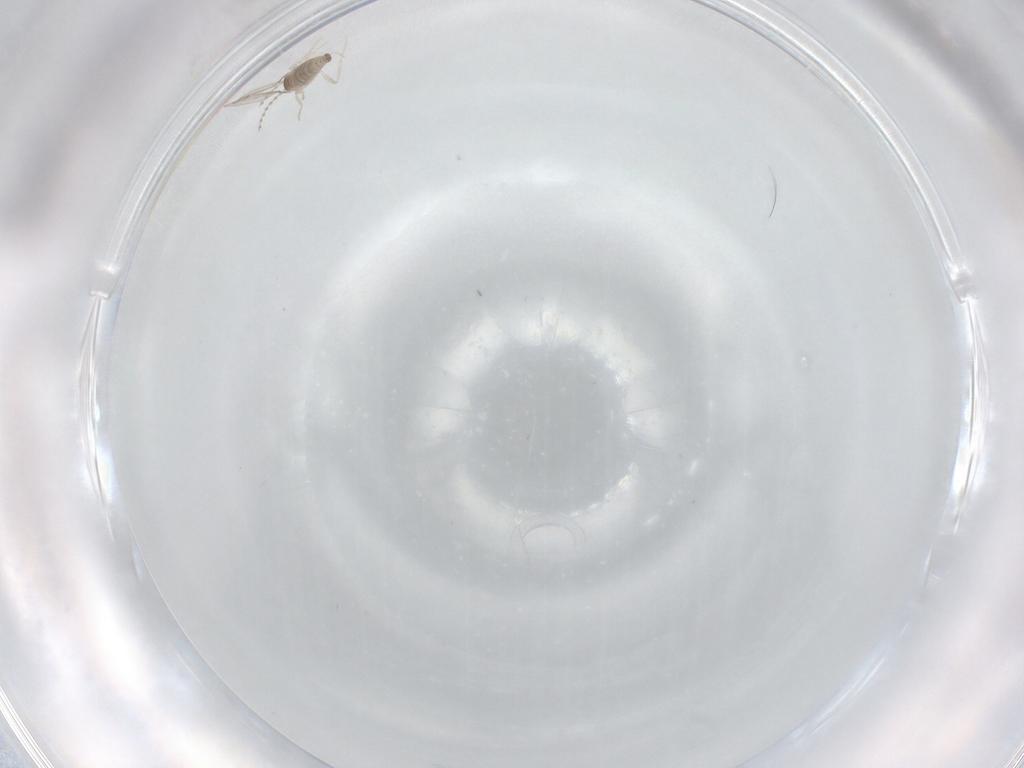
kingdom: Animalia
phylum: Arthropoda
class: Insecta
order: Diptera
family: Cecidomyiidae
